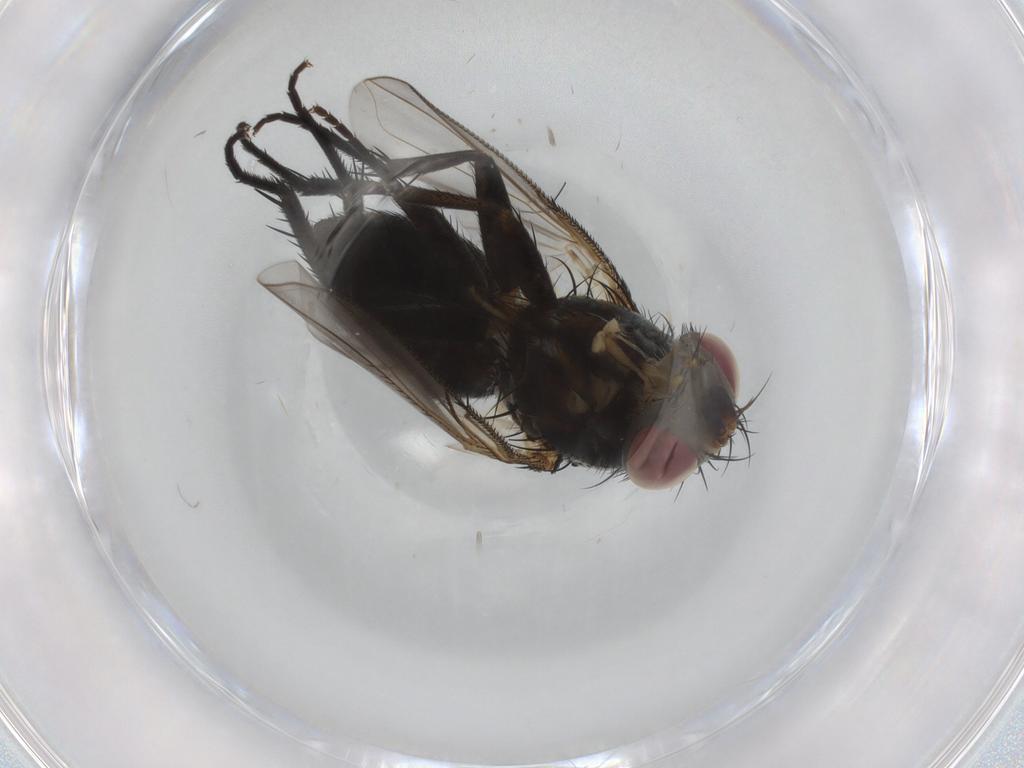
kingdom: Animalia
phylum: Arthropoda
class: Insecta
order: Diptera
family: Tachinidae
